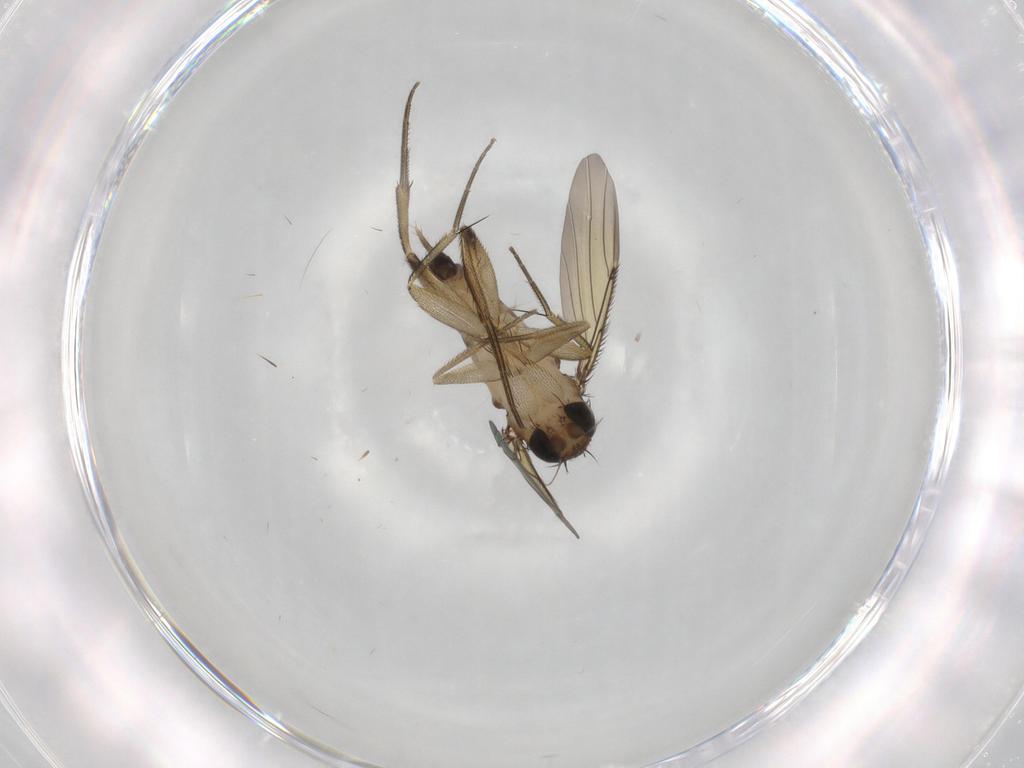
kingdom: Animalia
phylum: Arthropoda
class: Insecta
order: Diptera
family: Phoridae
